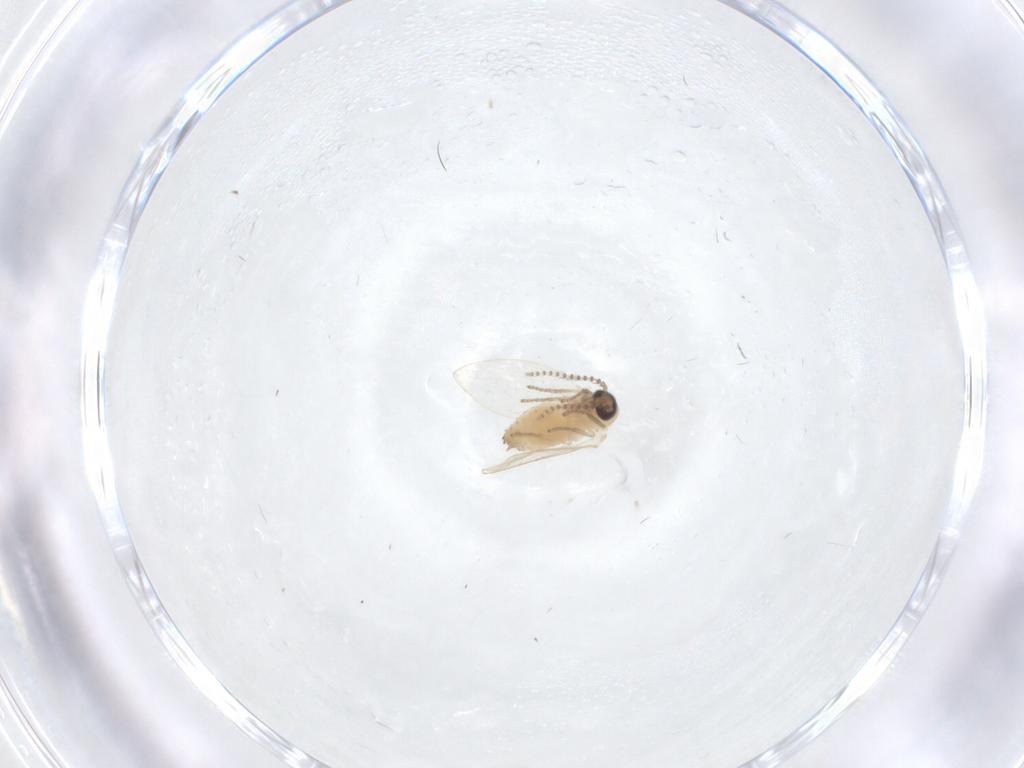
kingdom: Animalia
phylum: Arthropoda
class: Insecta
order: Diptera
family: Psychodidae
